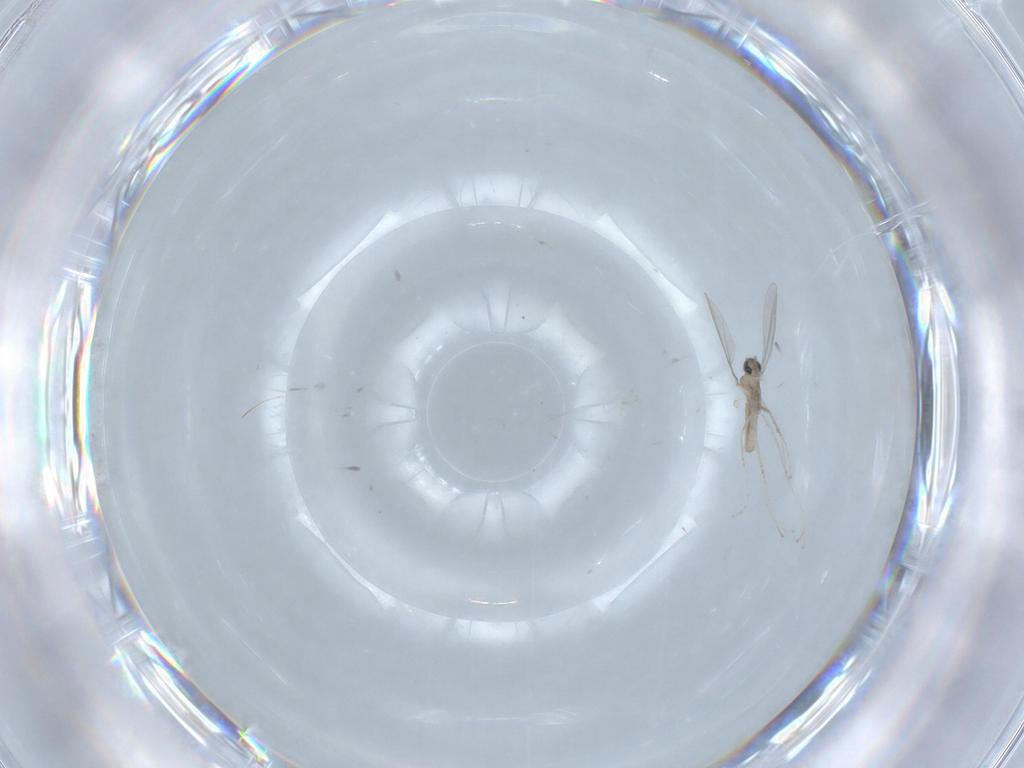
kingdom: Animalia
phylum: Arthropoda
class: Insecta
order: Diptera
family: Cecidomyiidae
